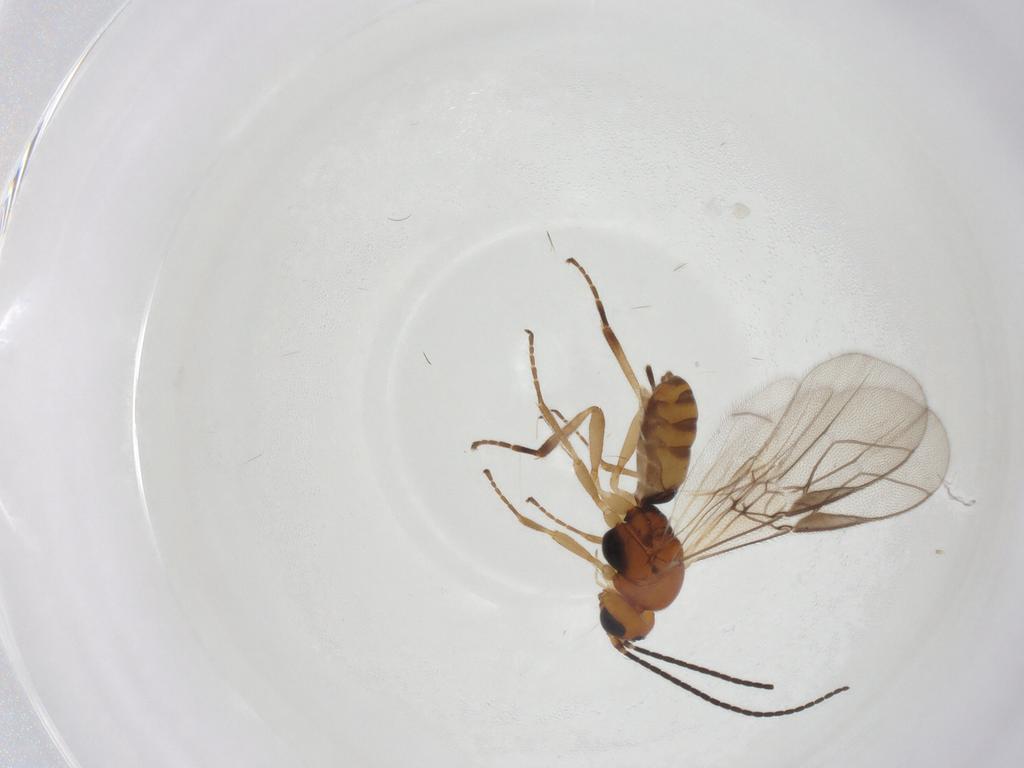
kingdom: Animalia
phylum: Arthropoda
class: Insecta
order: Hymenoptera
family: Braconidae
